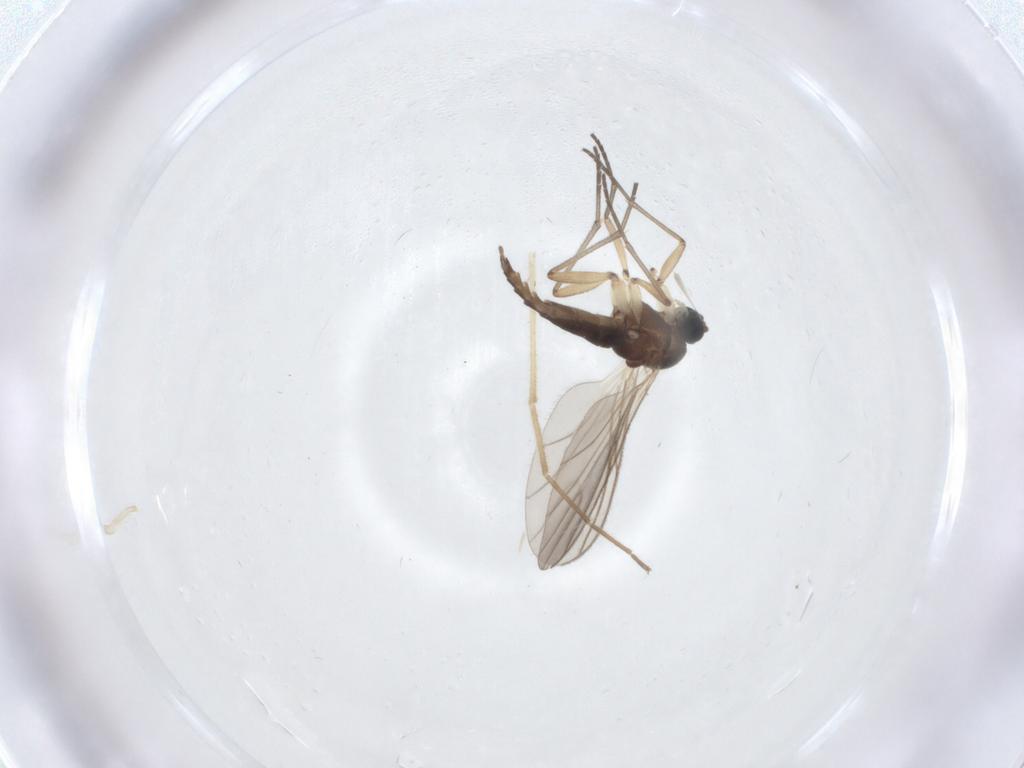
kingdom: Animalia
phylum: Arthropoda
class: Insecta
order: Diptera
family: Sciaridae
